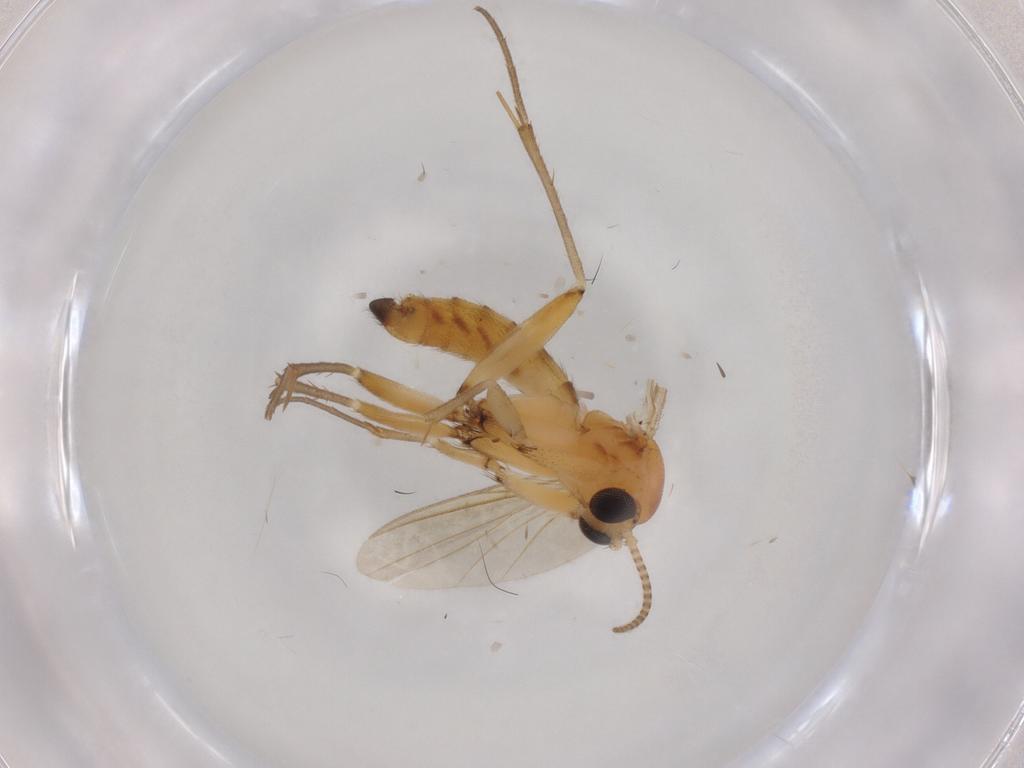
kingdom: Animalia
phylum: Arthropoda
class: Insecta
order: Diptera
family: Mycetophilidae
